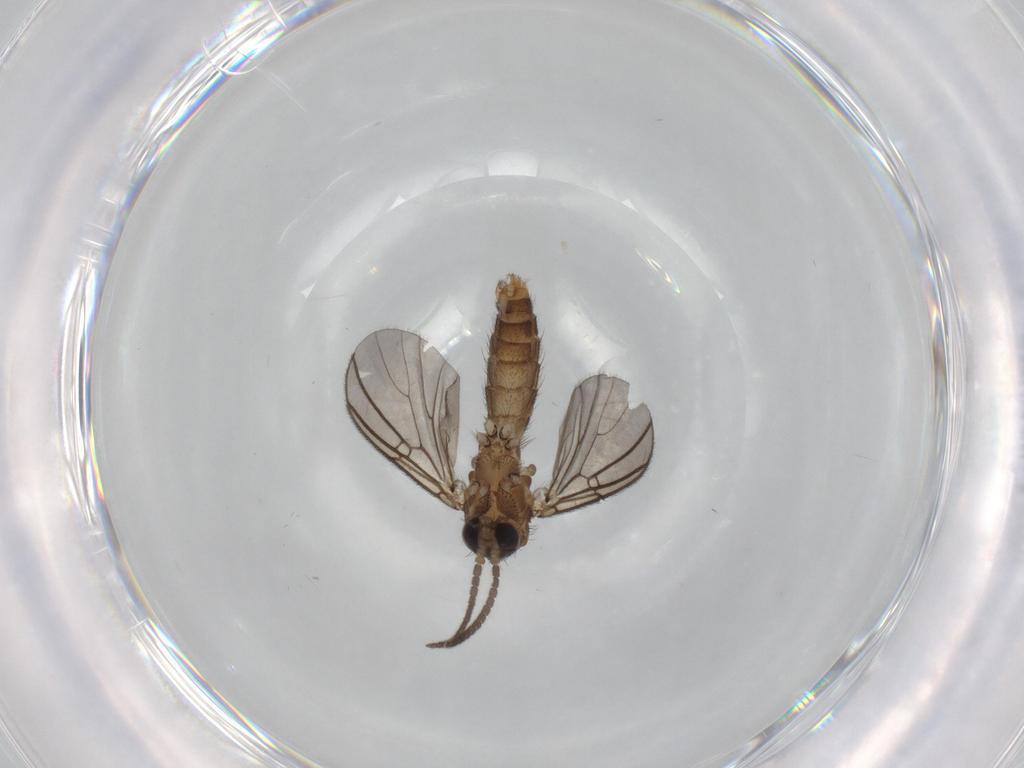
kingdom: Animalia
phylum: Arthropoda
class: Insecta
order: Diptera
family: Mycetophilidae
